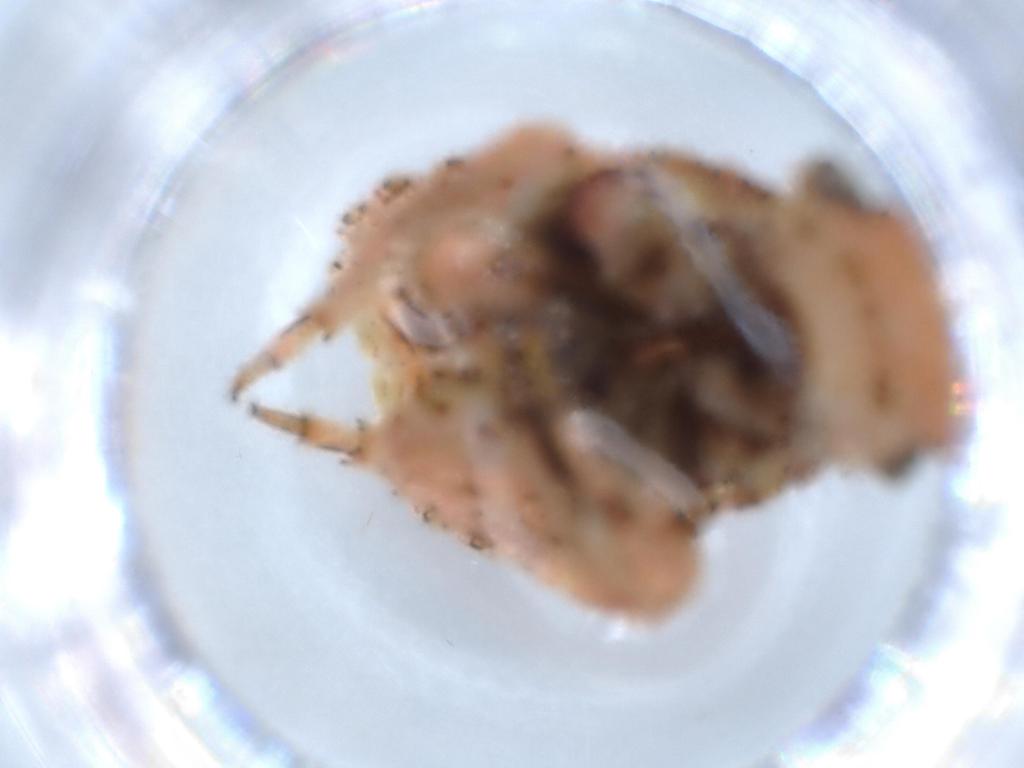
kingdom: Animalia
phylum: Arthropoda
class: Insecta
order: Hemiptera
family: Fulgoroidea_incertae_sedis
